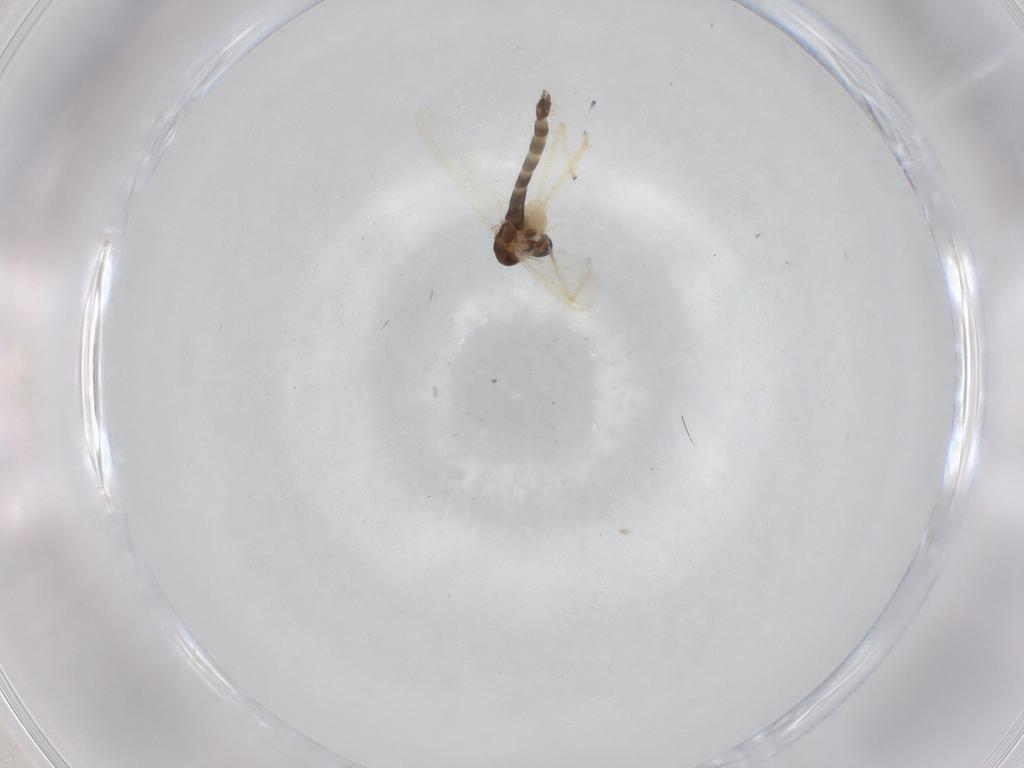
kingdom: Animalia
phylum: Arthropoda
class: Insecta
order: Diptera
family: Chironomidae
